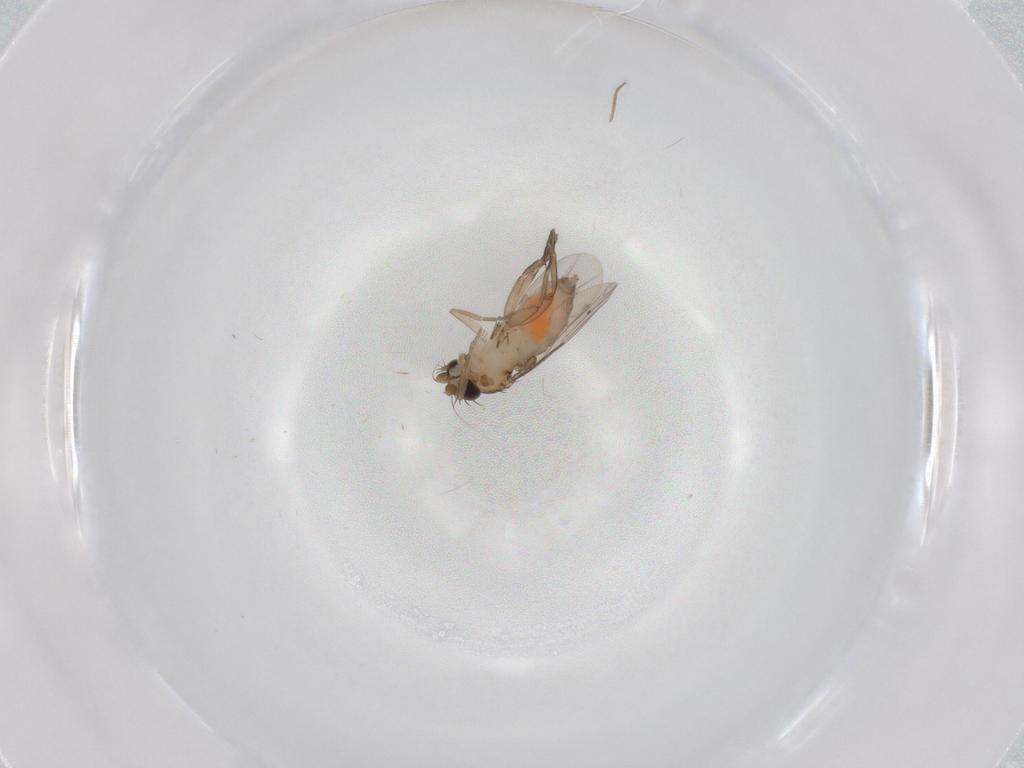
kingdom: Animalia
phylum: Arthropoda
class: Insecta
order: Diptera
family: Phoridae
